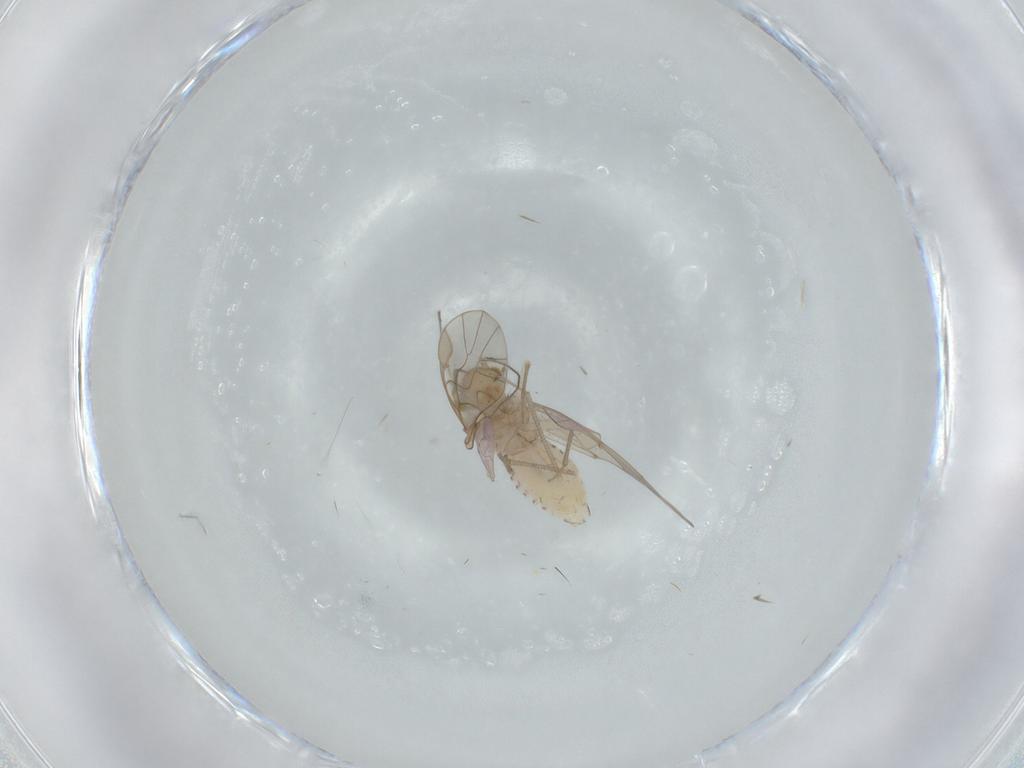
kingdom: Animalia
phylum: Arthropoda
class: Insecta
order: Psocodea
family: Lachesillidae
